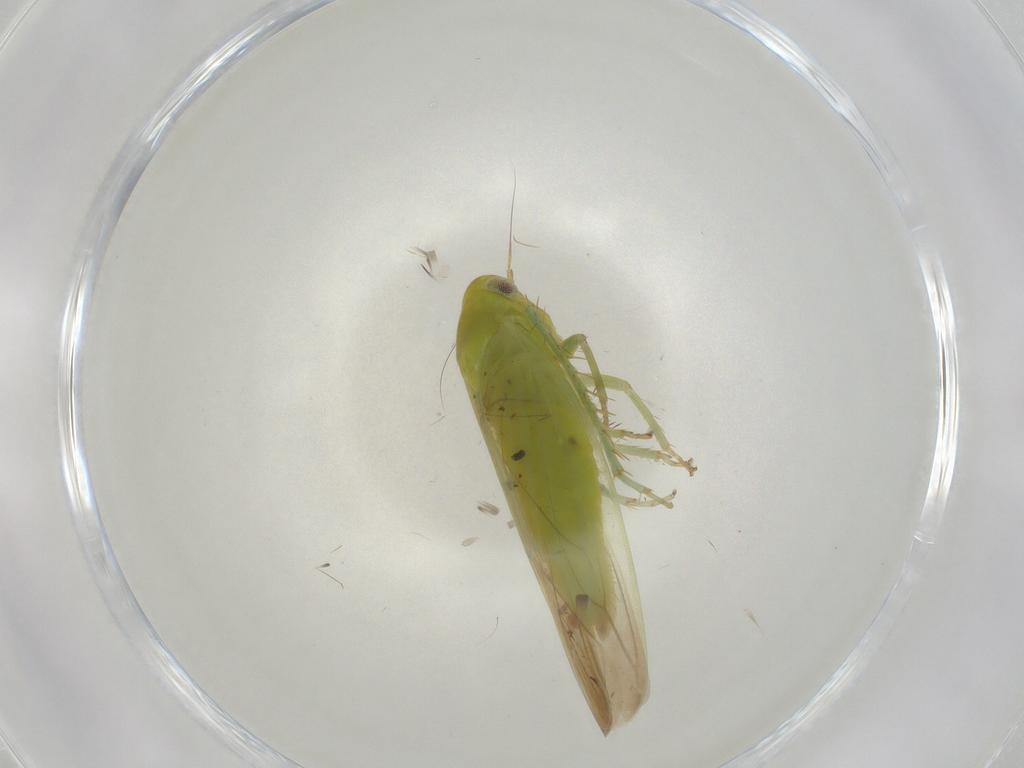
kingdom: Animalia
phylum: Arthropoda
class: Insecta
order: Hemiptera
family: Cicadellidae
